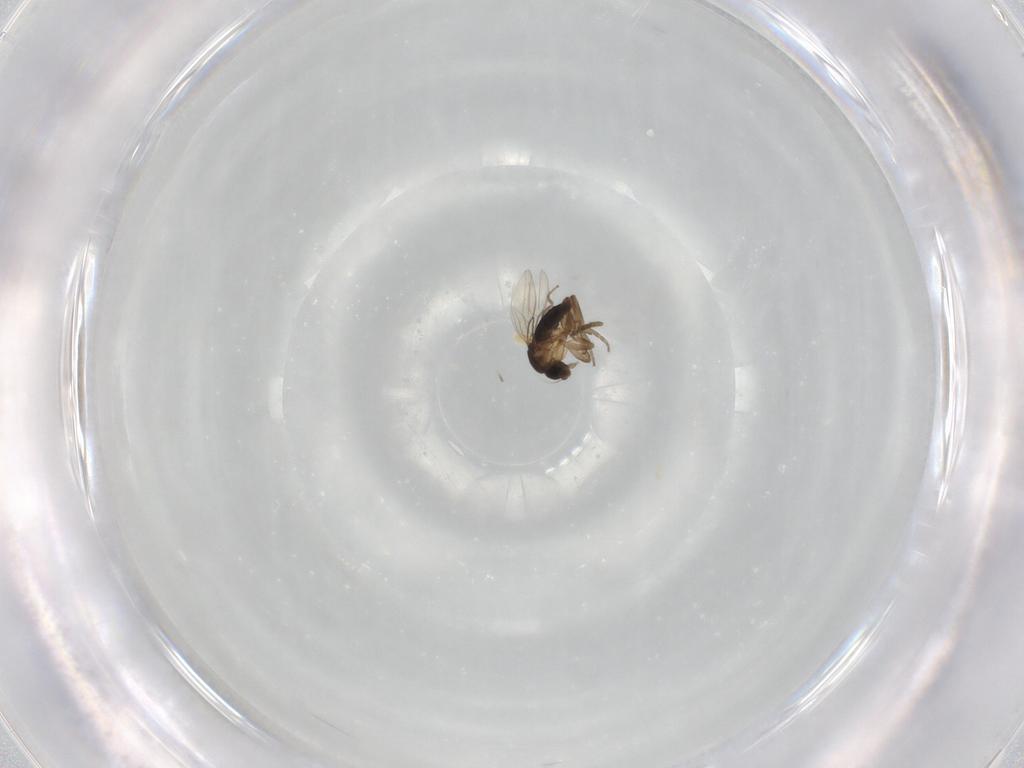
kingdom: Animalia
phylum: Arthropoda
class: Insecta
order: Diptera
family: Phoridae
